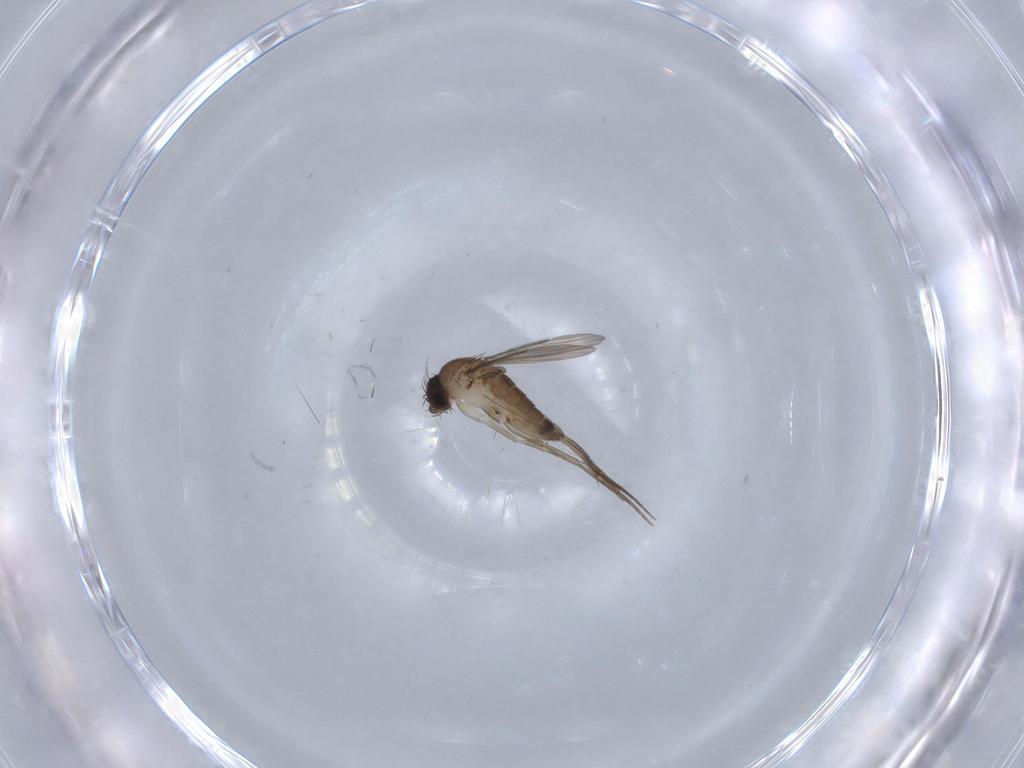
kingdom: Animalia
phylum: Arthropoda
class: Insecta
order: Diptera
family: Phoridae
